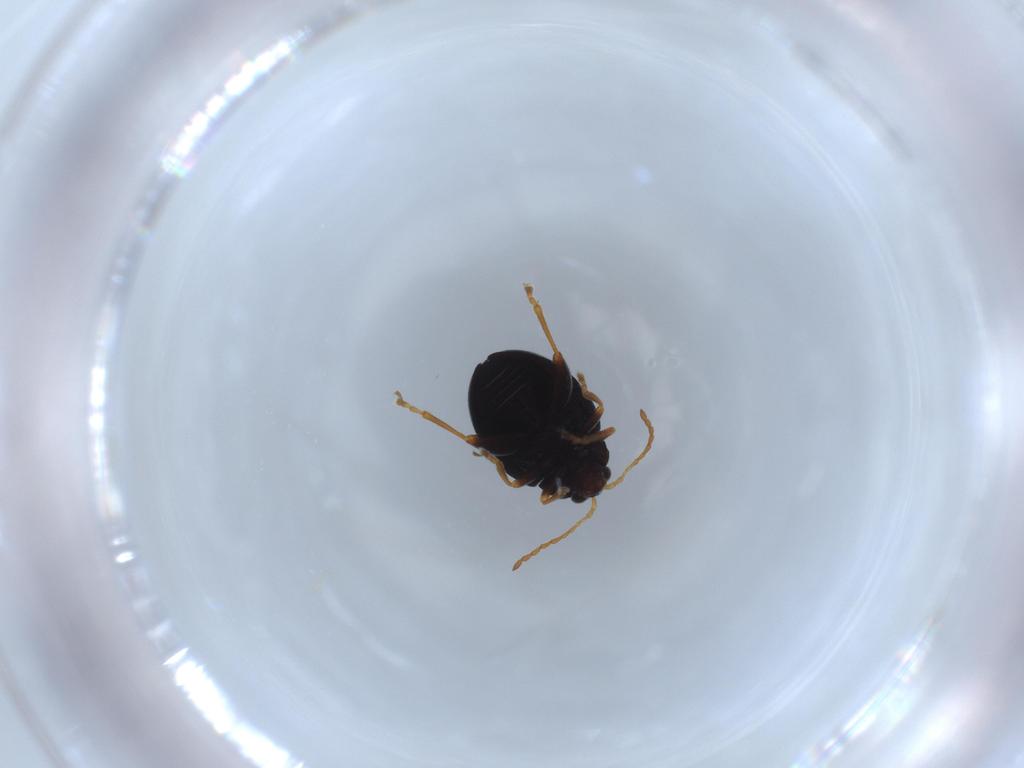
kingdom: Animalia
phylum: Arthropoda
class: Insecta
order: Coleoptera
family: Chrysomelidae
